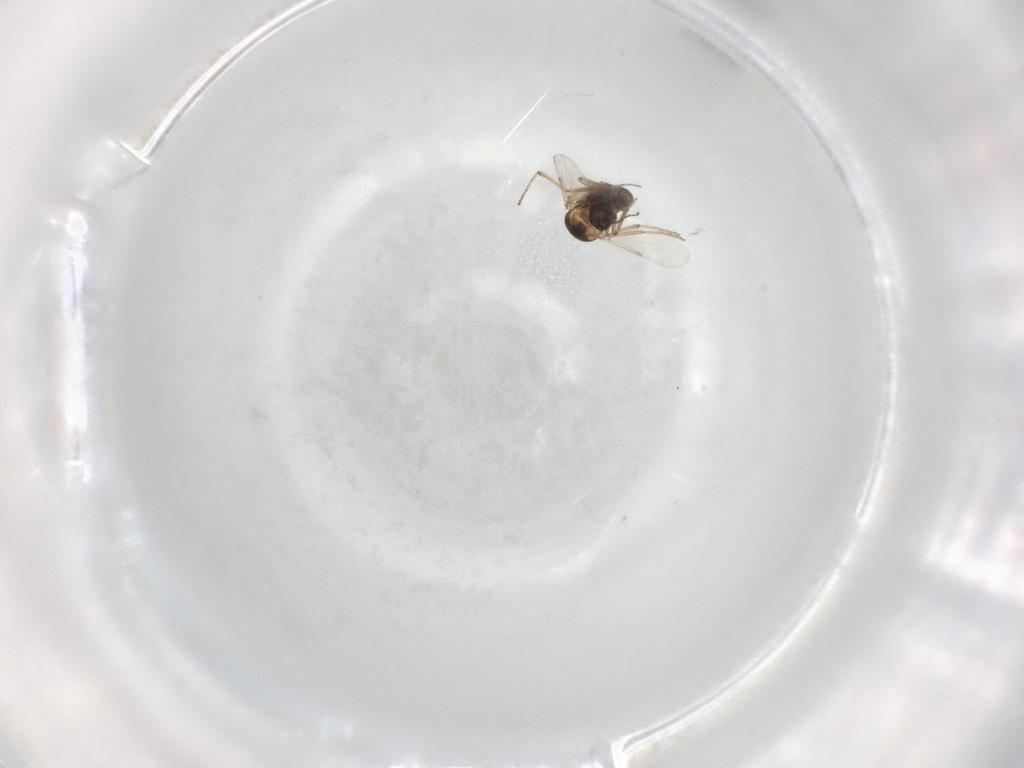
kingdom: Animalia
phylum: Arthropoda
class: Insecta
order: Diptera
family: Ceratopogonidae
